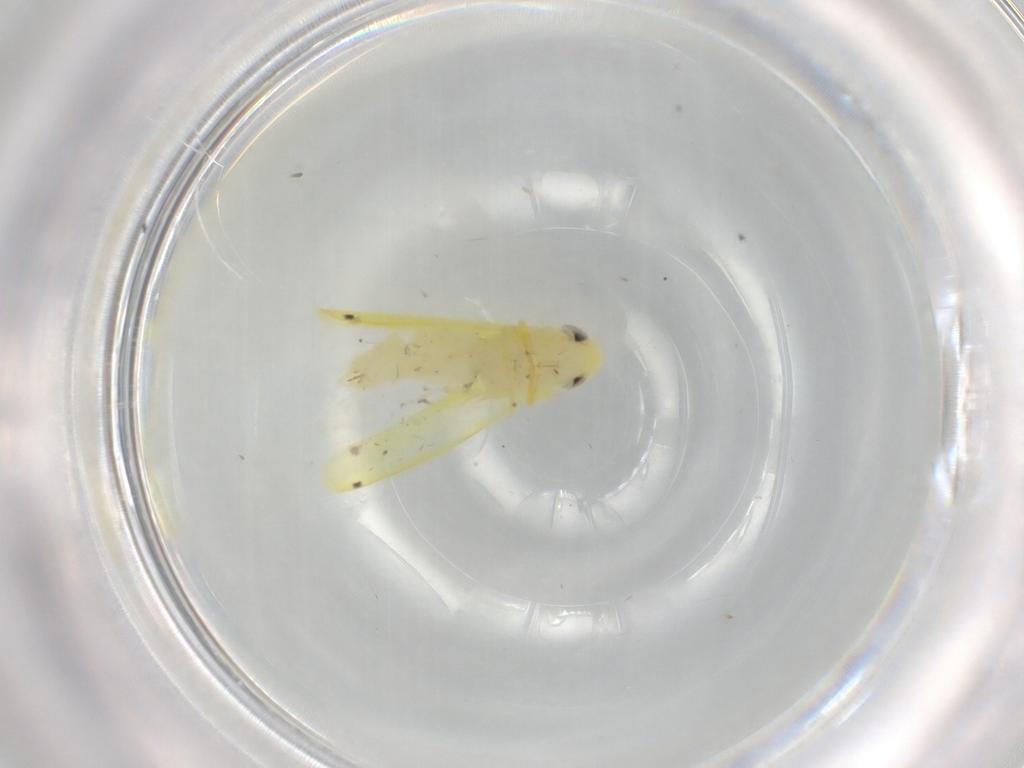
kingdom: Animalia
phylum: Arthropoda
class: Insecta
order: Hemiptera
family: Cicadellidae
